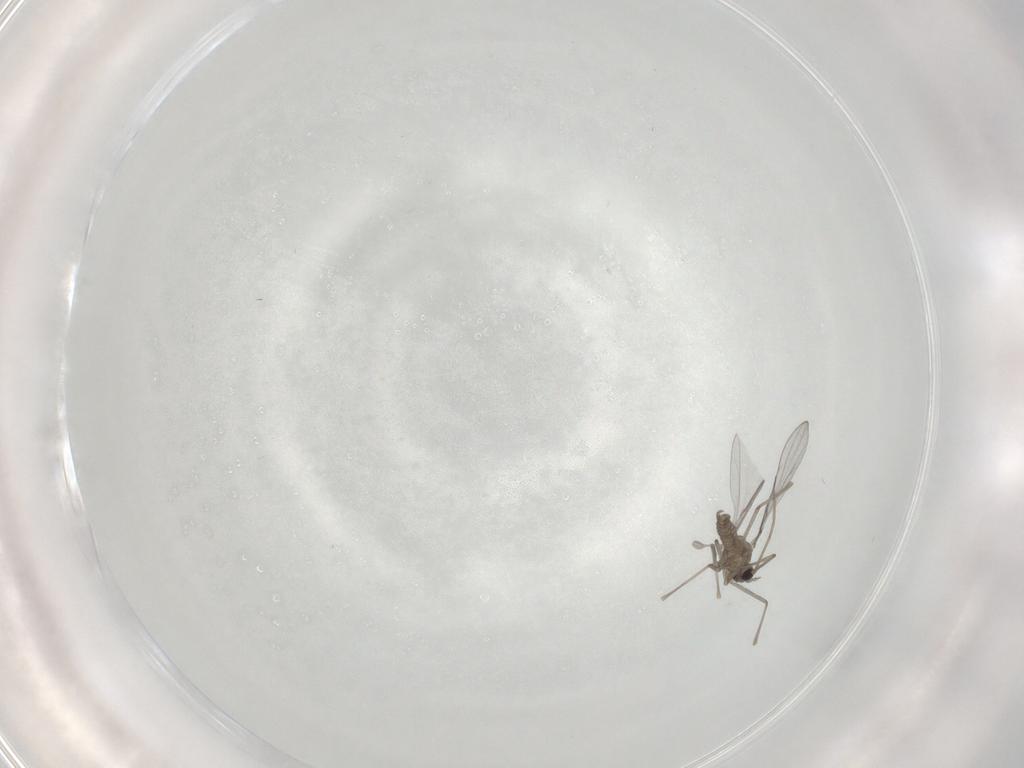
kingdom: Animalia
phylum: Arthropoda
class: Insecta
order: Diptera
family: Cecidomyiidae
